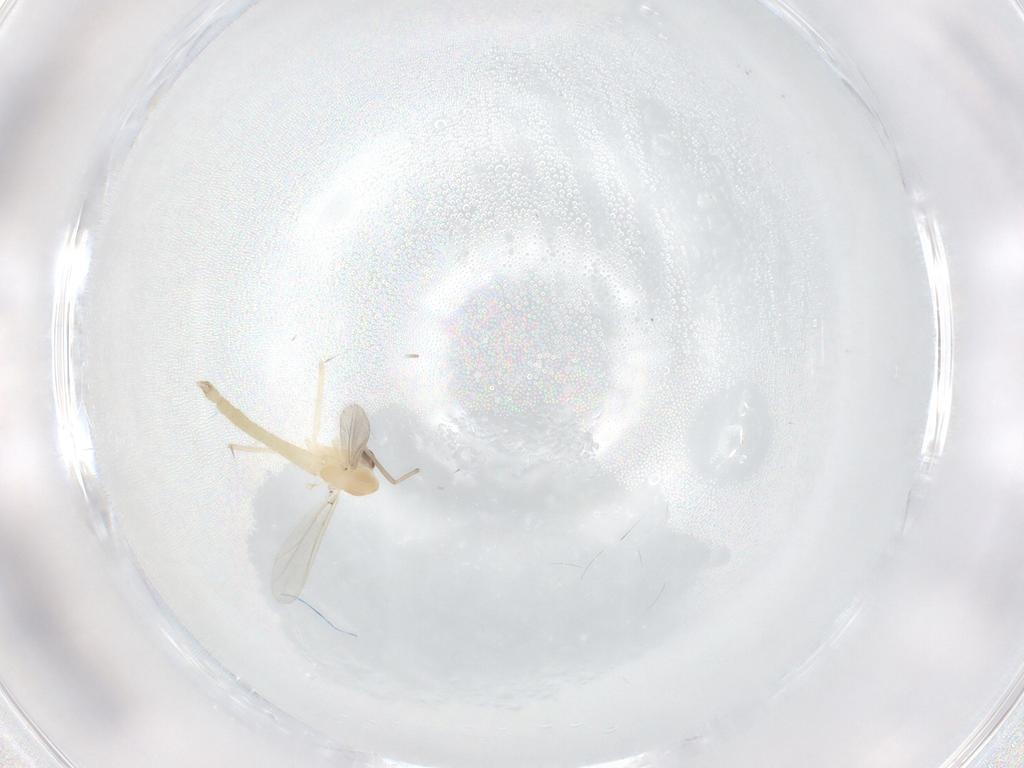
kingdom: Animalia
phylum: Arthropoda
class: Insecta
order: Diptera
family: Chironomidae
